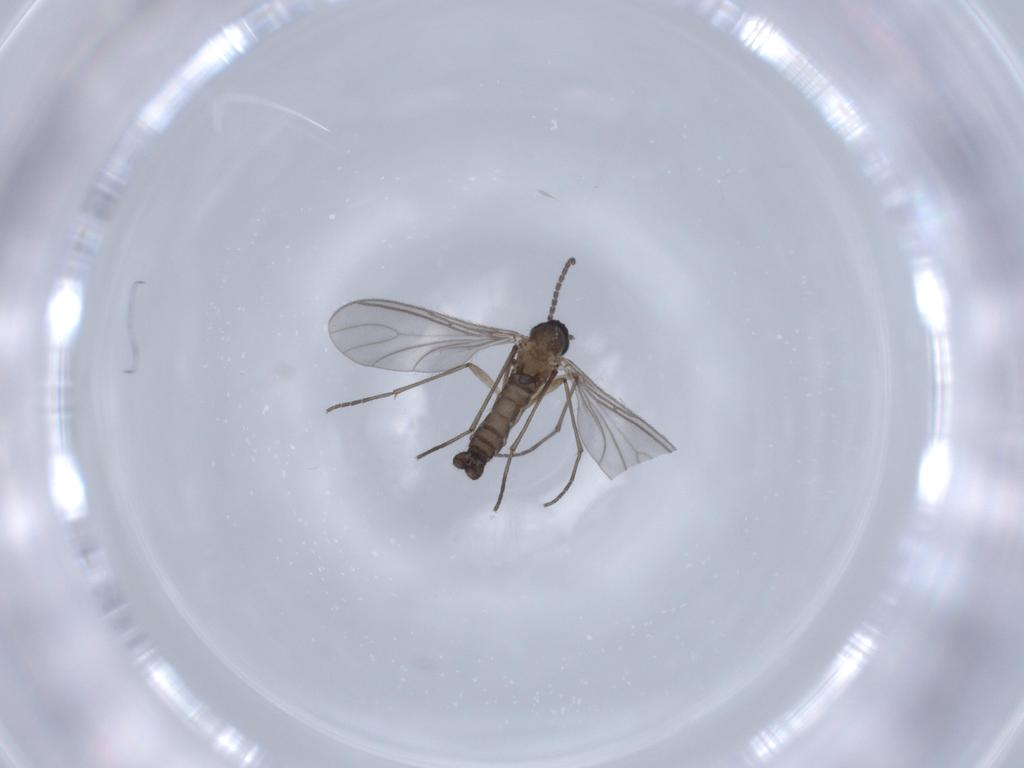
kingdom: Animalia
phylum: Arthropoda
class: Insecta
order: Diptera
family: Sciaridae
